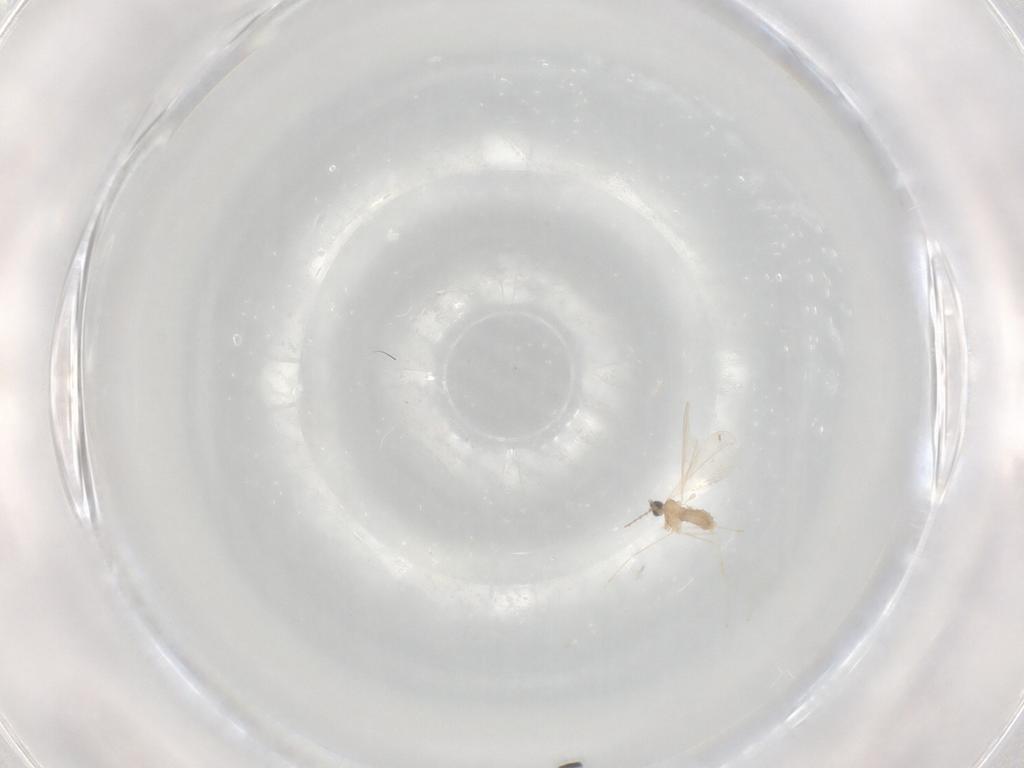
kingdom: Animalia
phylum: Arthropoda
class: Insecta
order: Diptera
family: Cecidomyiidae
